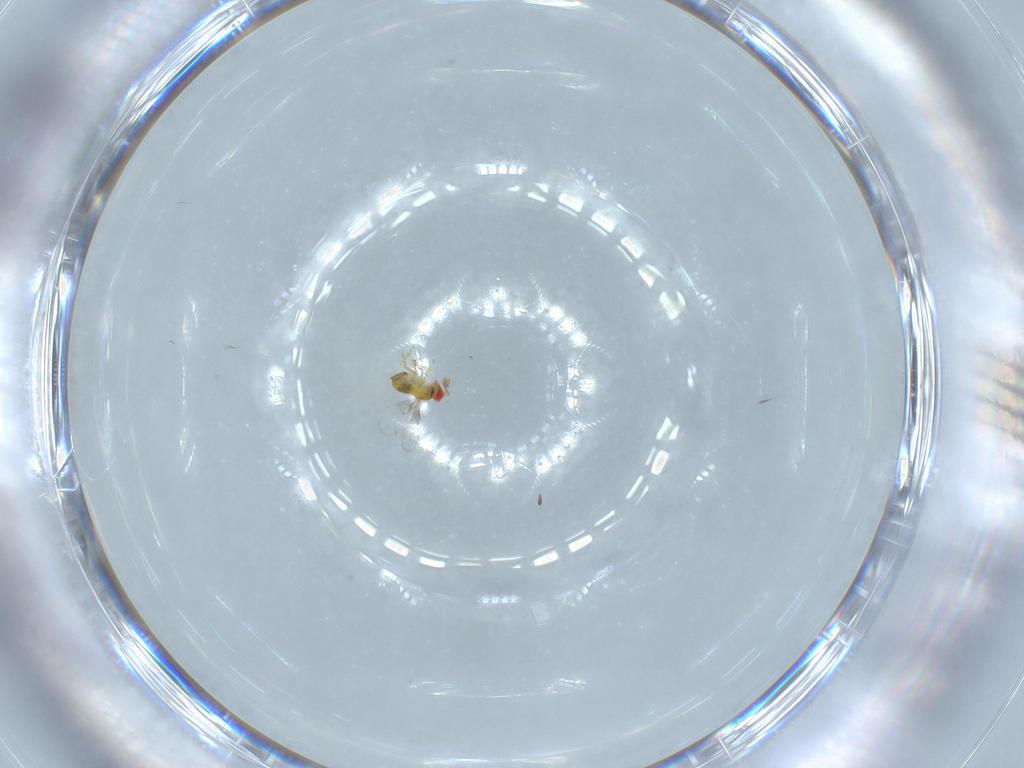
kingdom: Animalia
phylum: Arthropoda
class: Insecta
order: Hymenoptera
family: Trichogrammatidae
